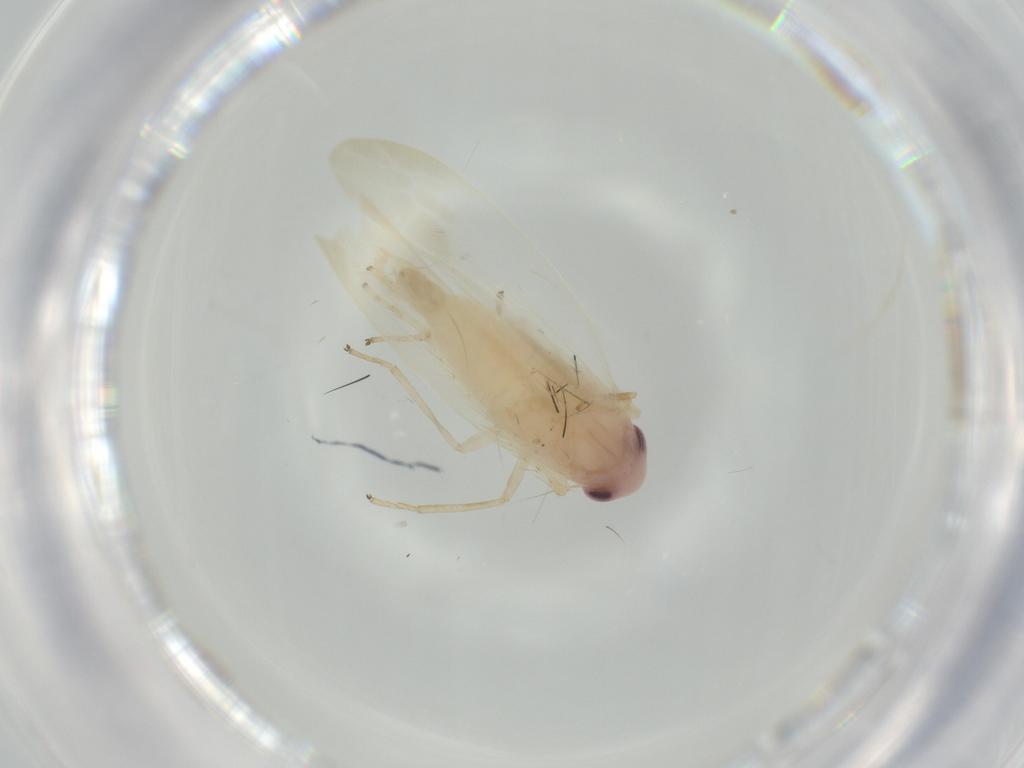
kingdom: Animalia
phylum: Arthropoda
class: Insecta
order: Hemiptera
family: Cicadellidae
